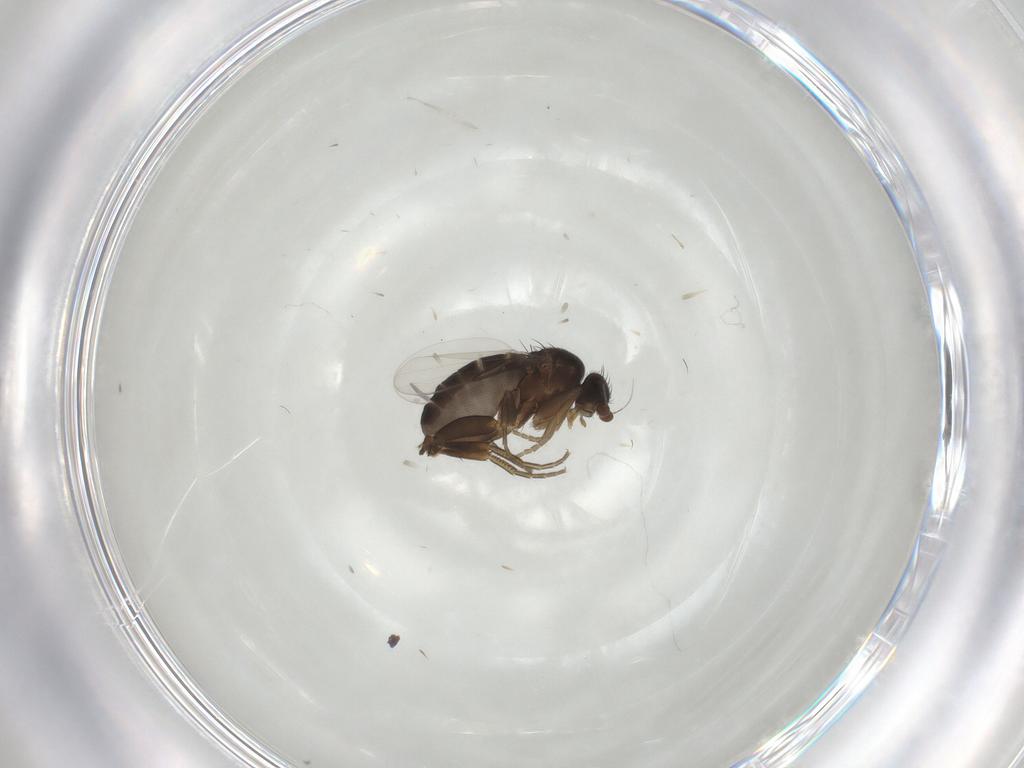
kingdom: Animalia
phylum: Arthropoda
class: Insecta
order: Diptera
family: Phoridae
